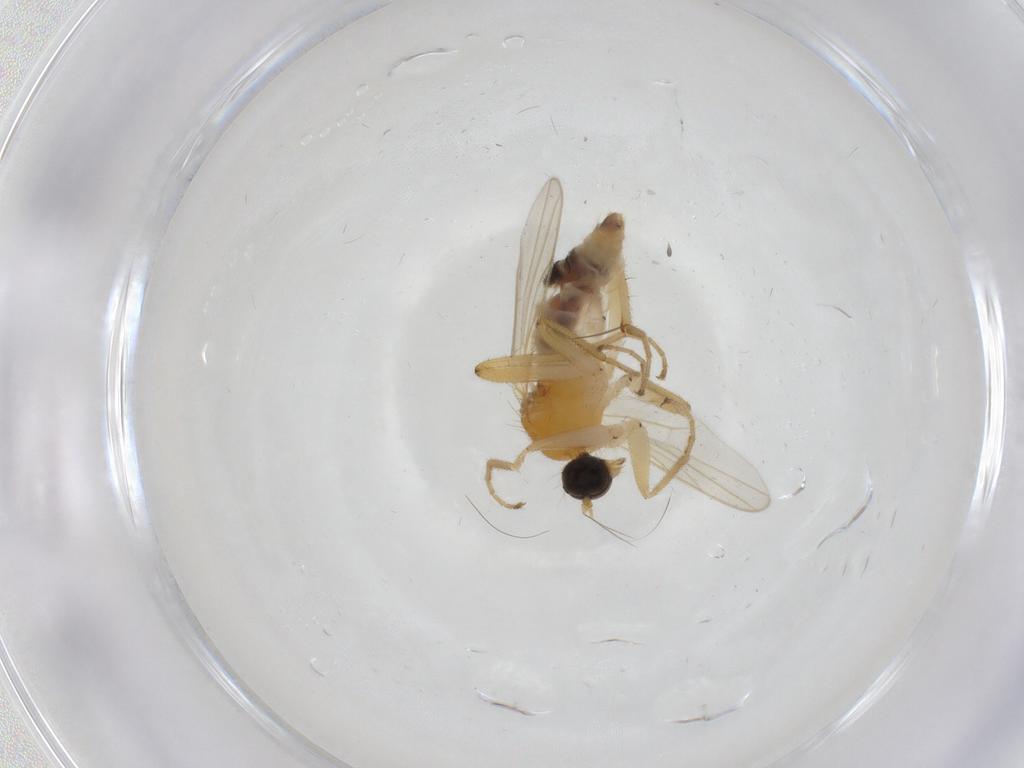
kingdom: Animalia
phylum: Arthropoda
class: Insecta
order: Diptera
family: Hybotidae
